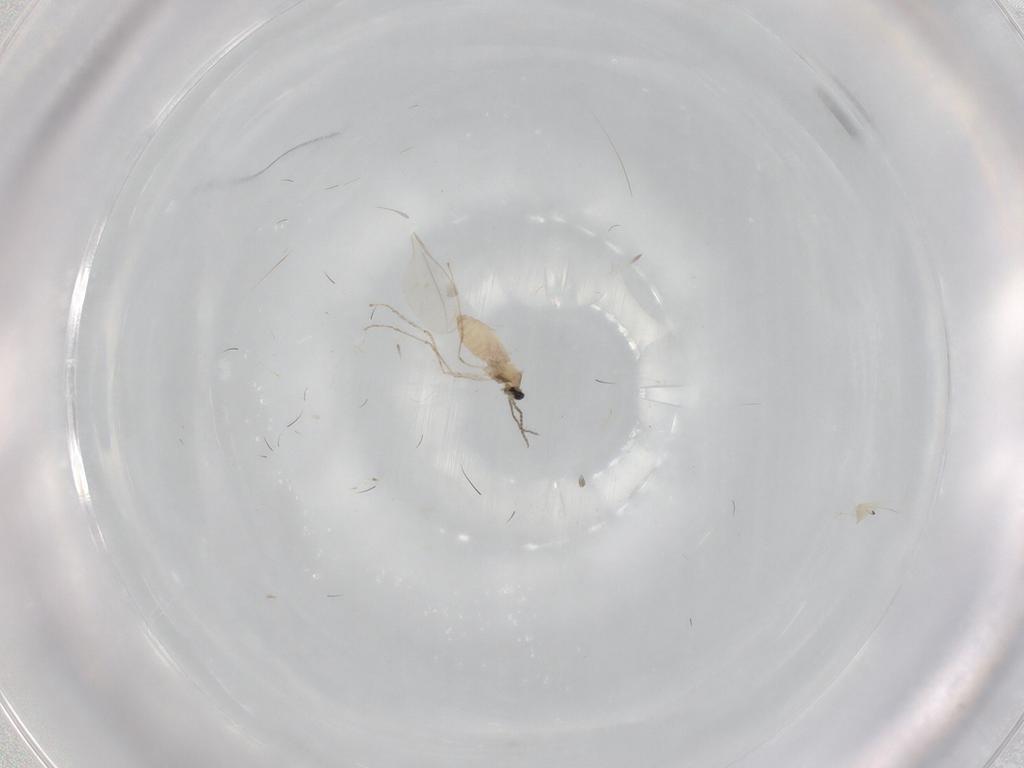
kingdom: Animalia
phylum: Arthropoda
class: Insecta
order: Diptera
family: Cecidomyiidae
